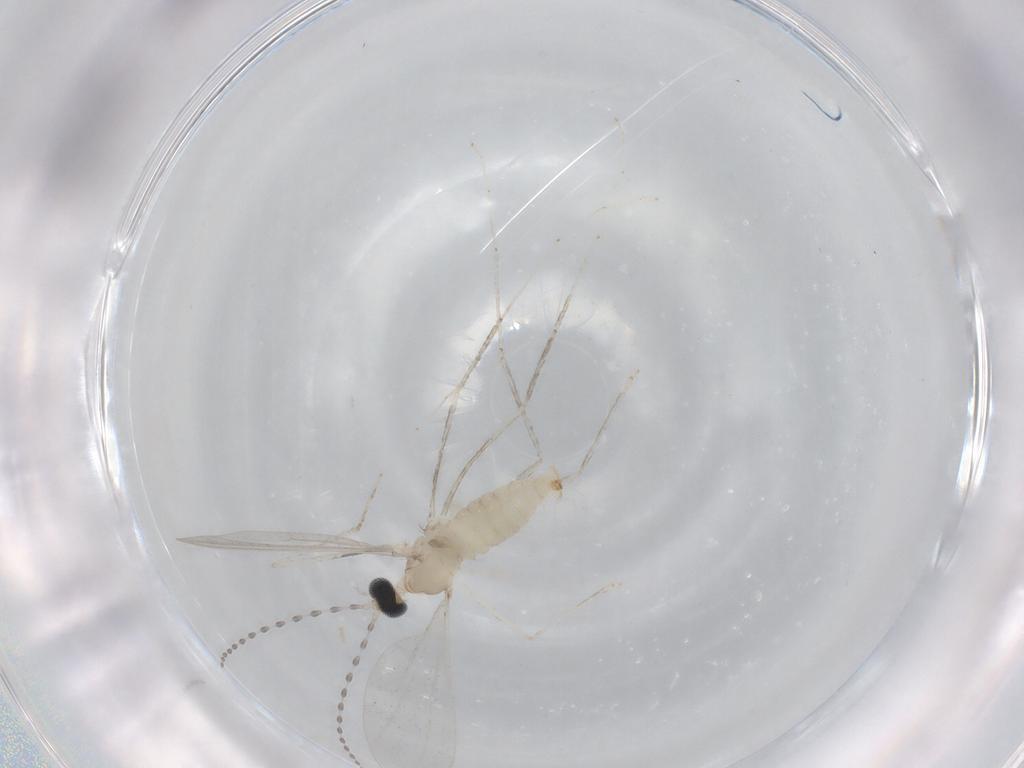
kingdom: Animalia
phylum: Arthropoda
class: Insecta
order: Diptera
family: Cecidomyiidae
